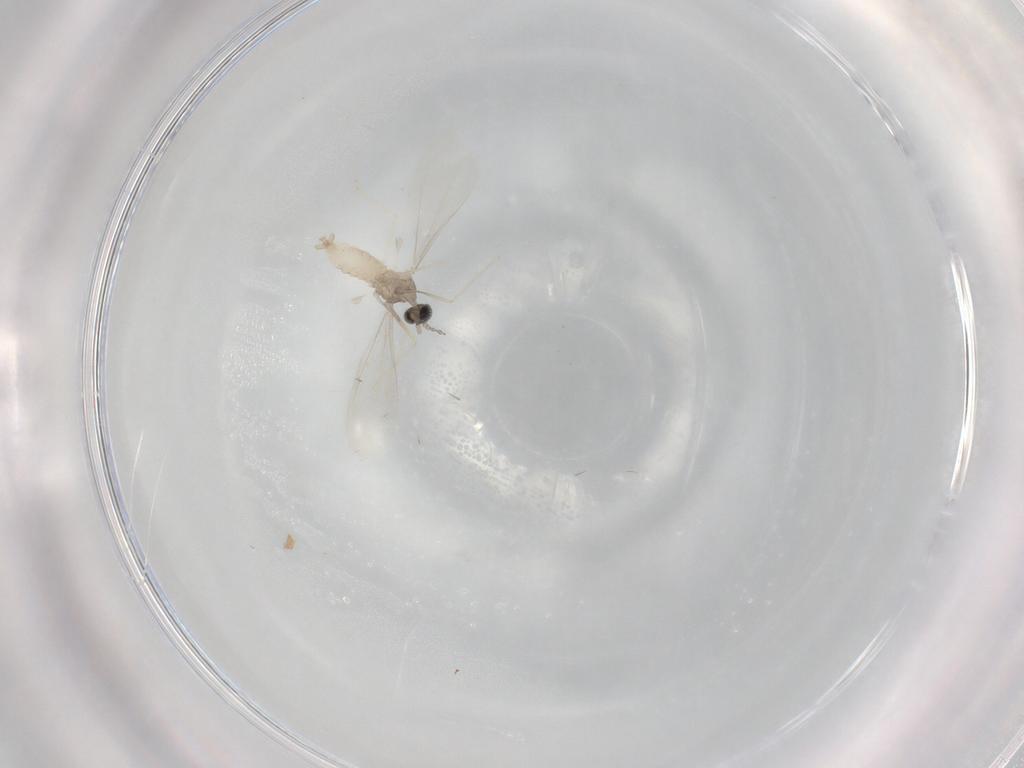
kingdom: Animalia
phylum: Arthropoda
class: Insecta
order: Diptera
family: Cecidomyiidae
